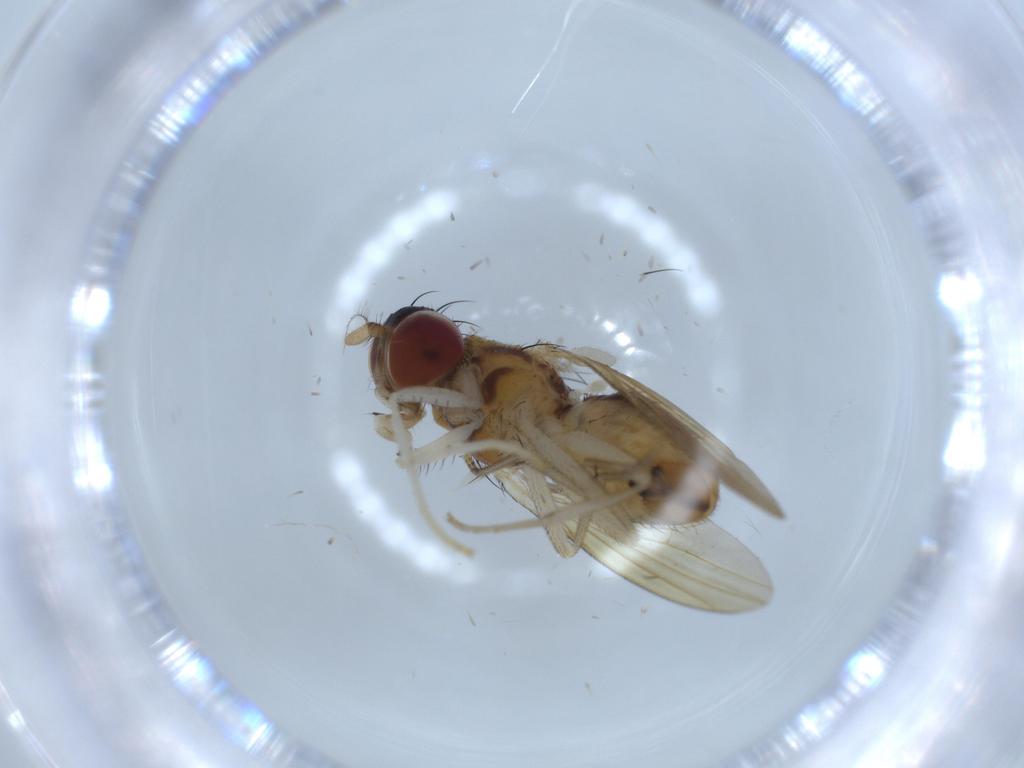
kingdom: Animalia
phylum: Arthropoda
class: Insecta
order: Diptera
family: Cecidomyiidae
